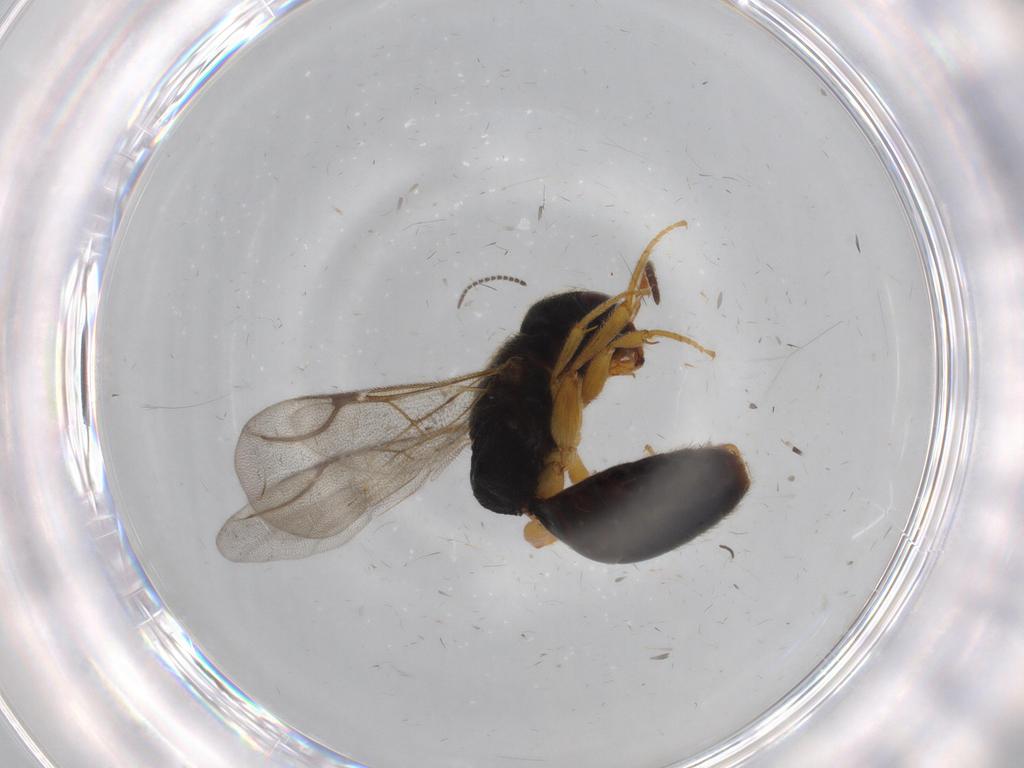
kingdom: Animalia
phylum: Arthropoda
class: Insecta
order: Hymenoptera
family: Bethylidae
